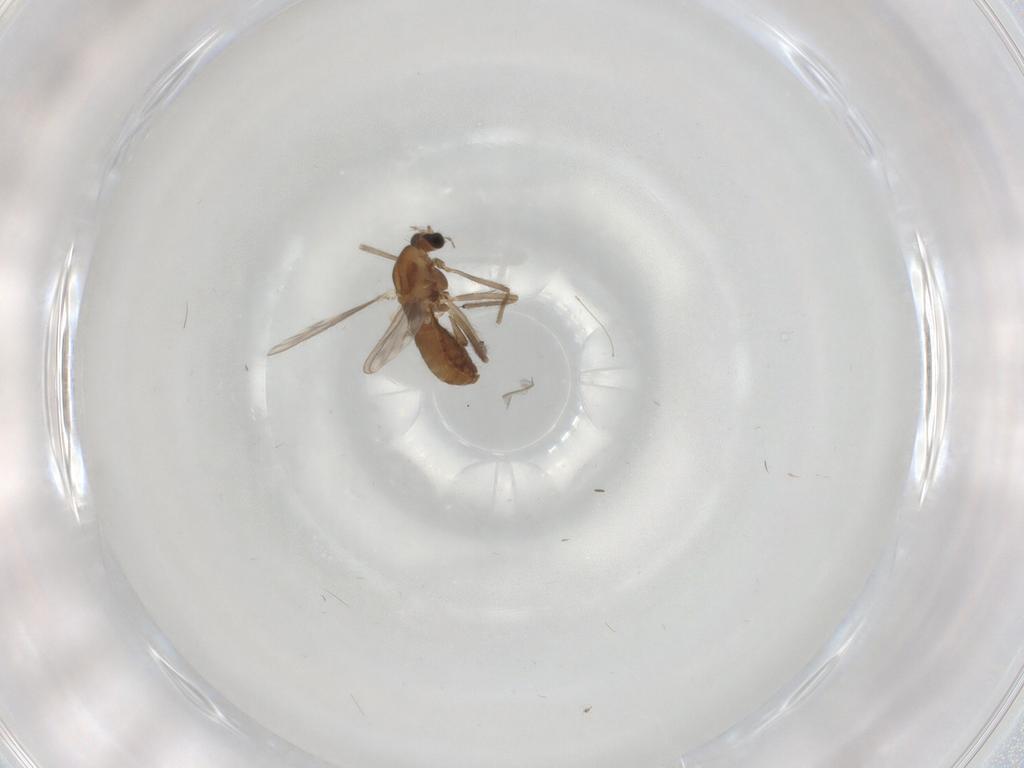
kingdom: Animalia
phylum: Arthropoda
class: Insecta
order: Diptera
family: Chironomidae
